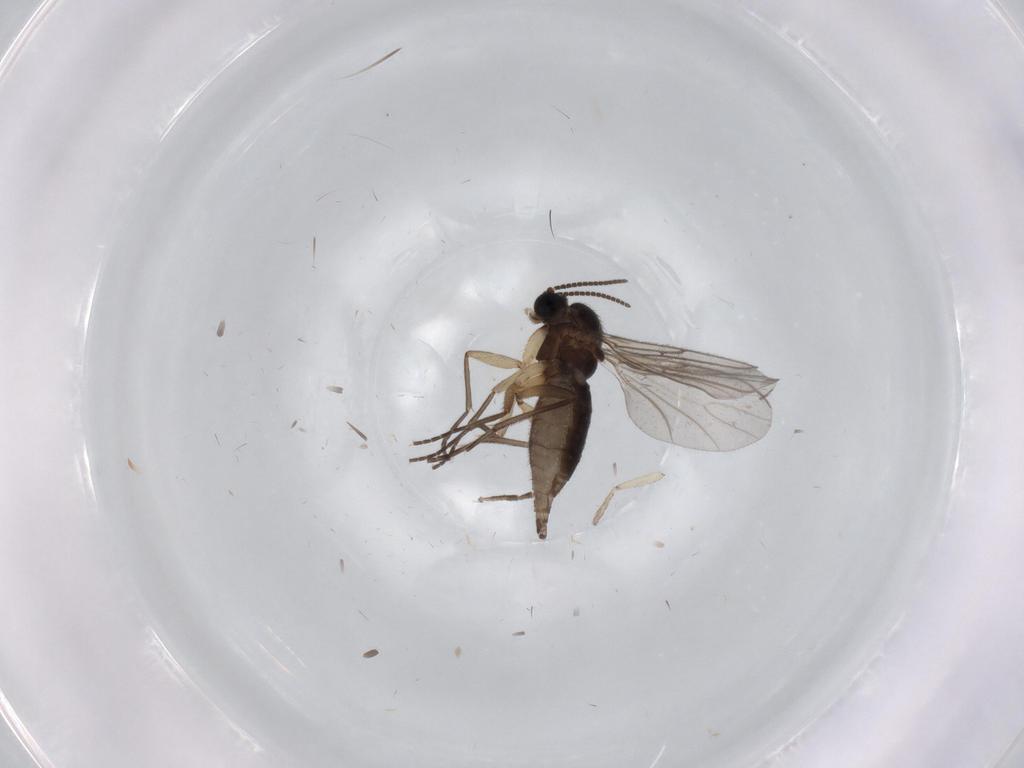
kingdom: Animalia
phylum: Arthropoda
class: Insecta
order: Diptera
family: Sciaridae
